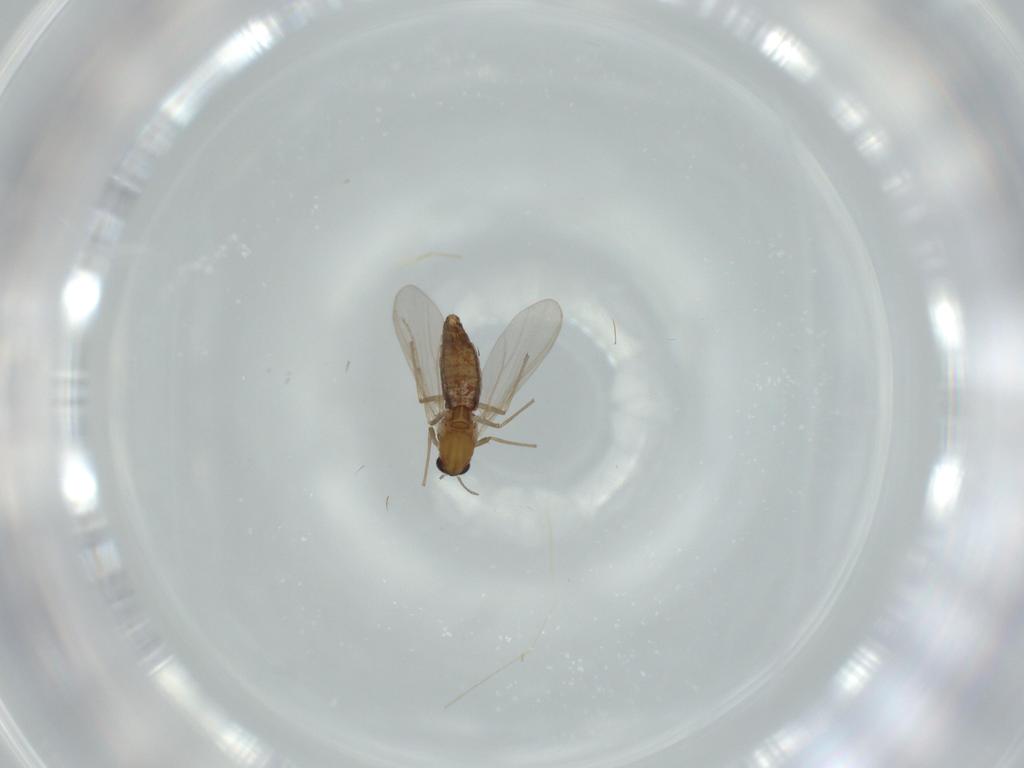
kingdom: Animalia
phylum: Arthropoda
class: Insecta
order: Diptera
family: Chironomidae
